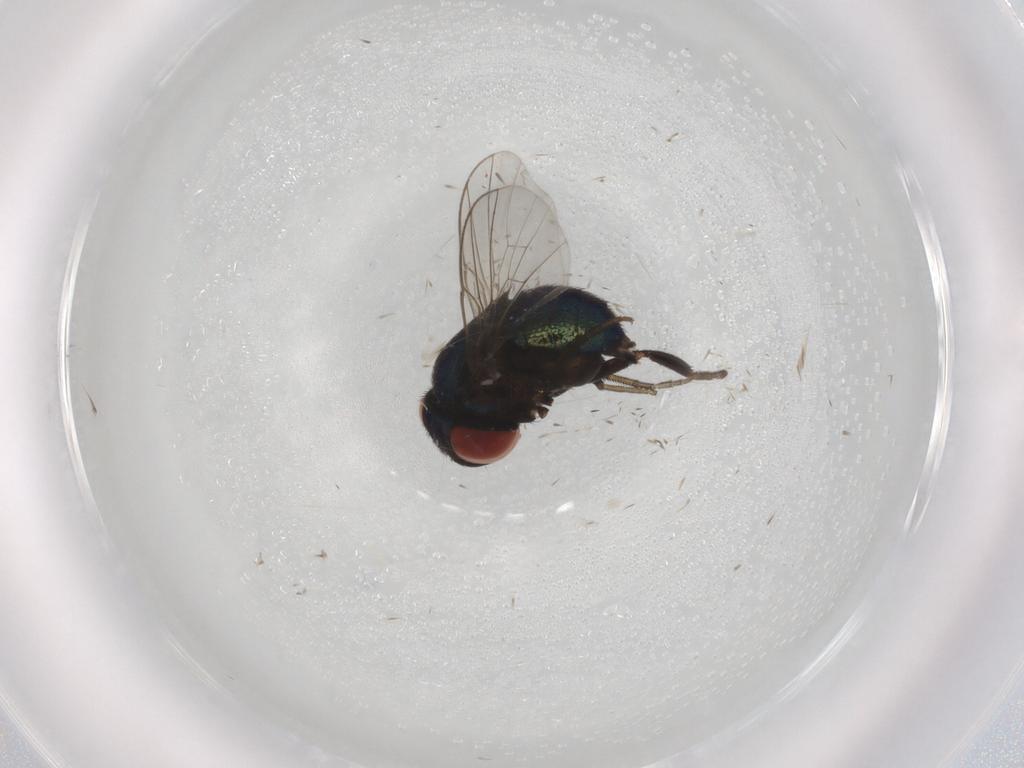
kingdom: Animalia
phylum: Arthropoda
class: Insecta
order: Diptera
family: Cryptochetidae
